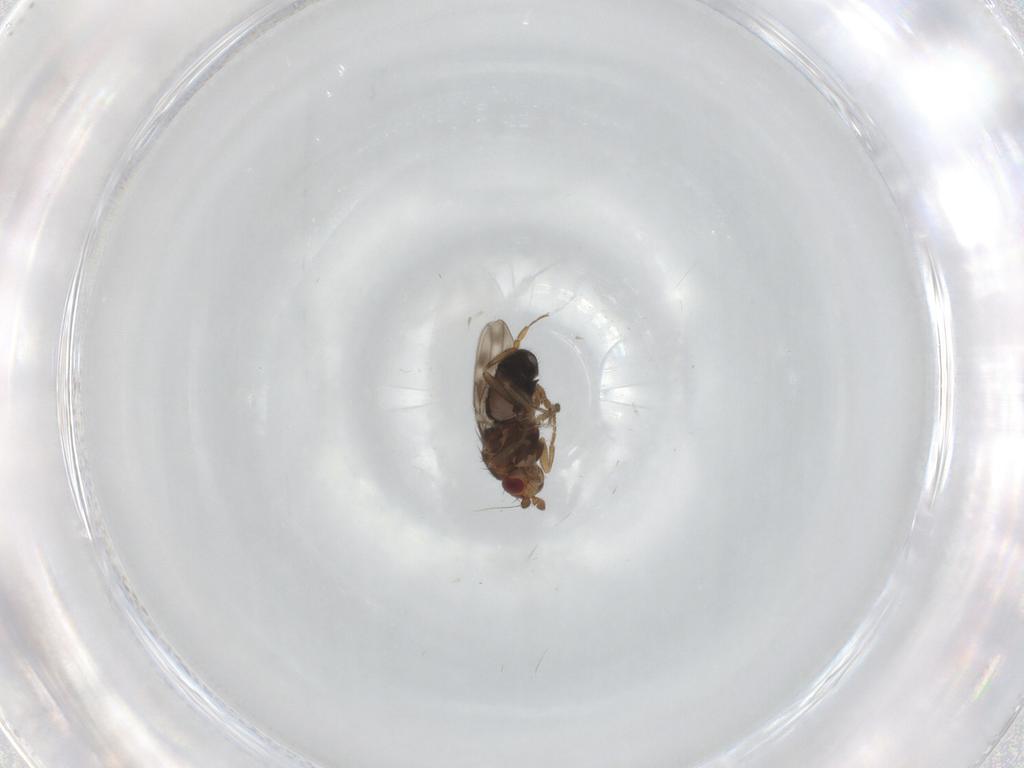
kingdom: Animalia
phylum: Arthropoda
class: Insecta
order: Diptera
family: Sphaeroceridae
